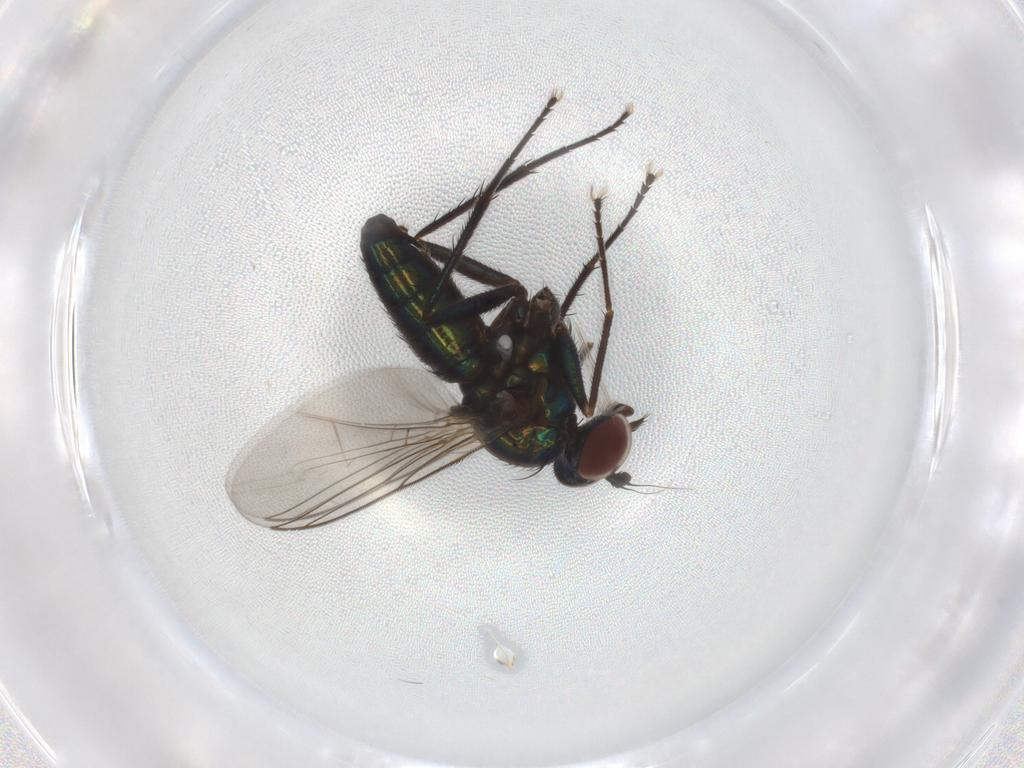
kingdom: Animalia
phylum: Arthropoda
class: Insecta
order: Diptera
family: Dolichopodidae
